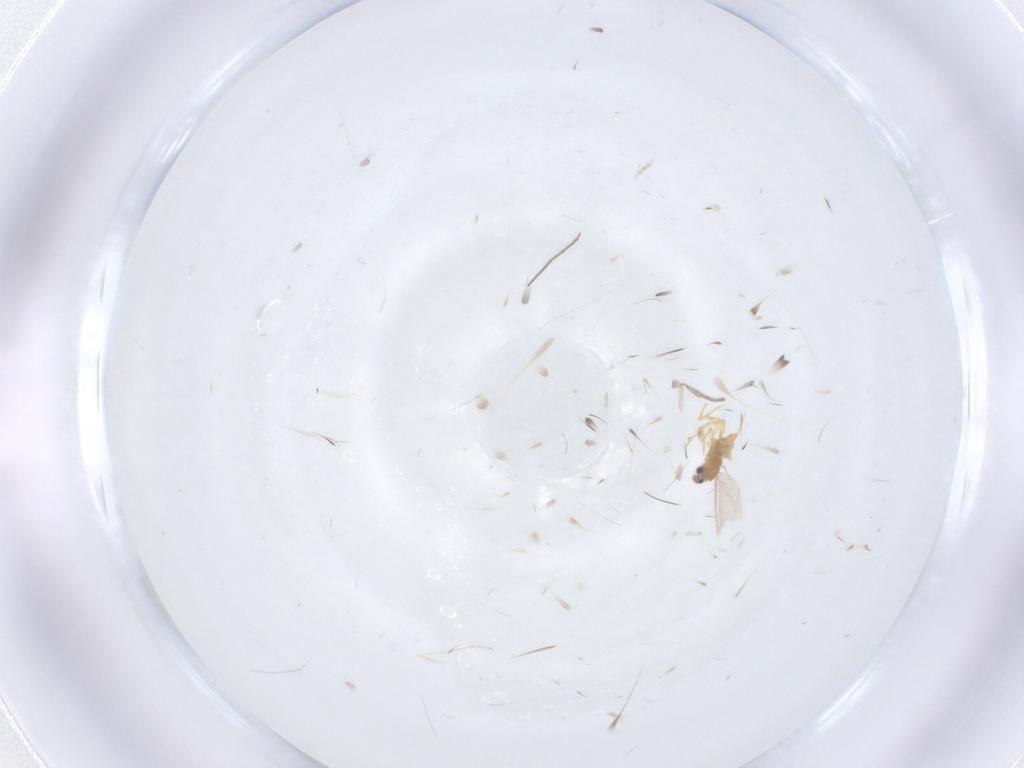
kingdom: Animalia
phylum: Arthropoda
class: Insecta
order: Diptera
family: Psychodidae
